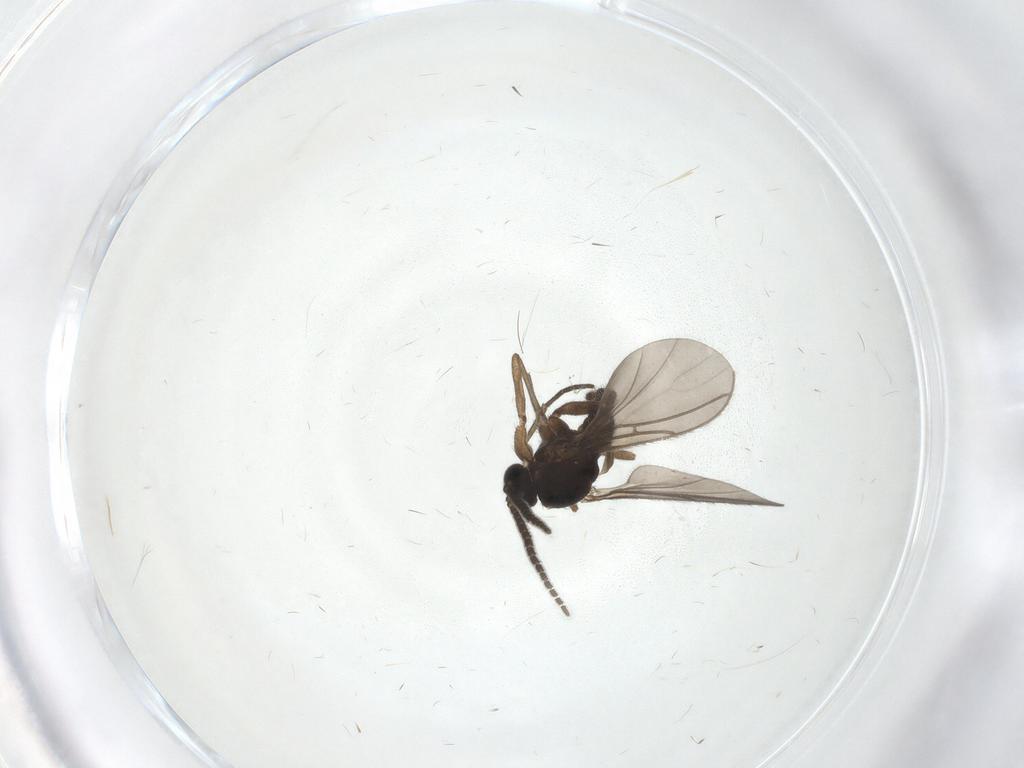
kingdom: Animalia
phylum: Arthropoda
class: Insecta
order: Diptera
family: Sciaridae
